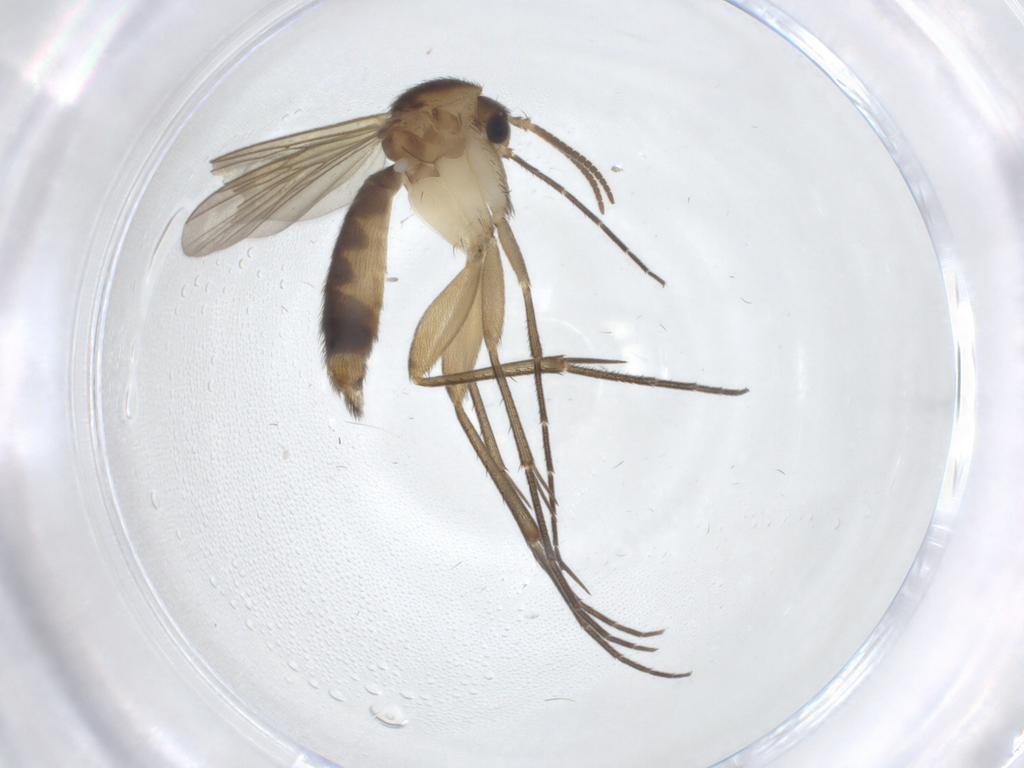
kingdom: Animalia
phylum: Arthropoda
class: Insecta
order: Diptera
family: Mycetophilidae
